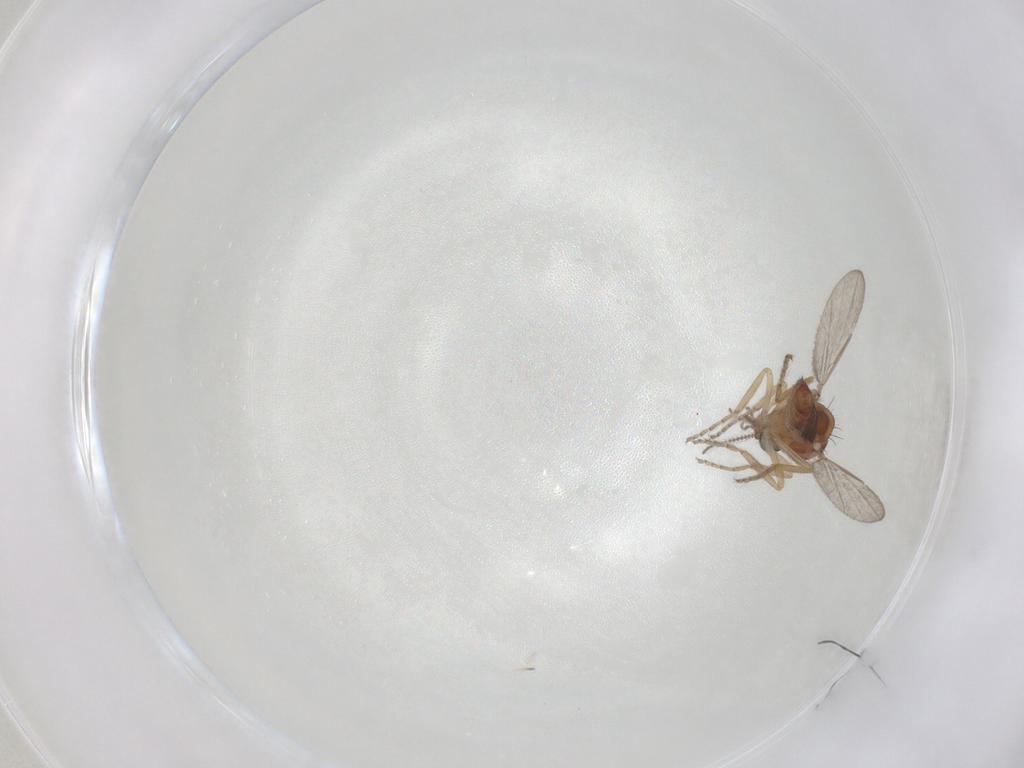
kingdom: Animalia
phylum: Arthropoda
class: Insecta
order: Diptera
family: Ceratopogonidae
